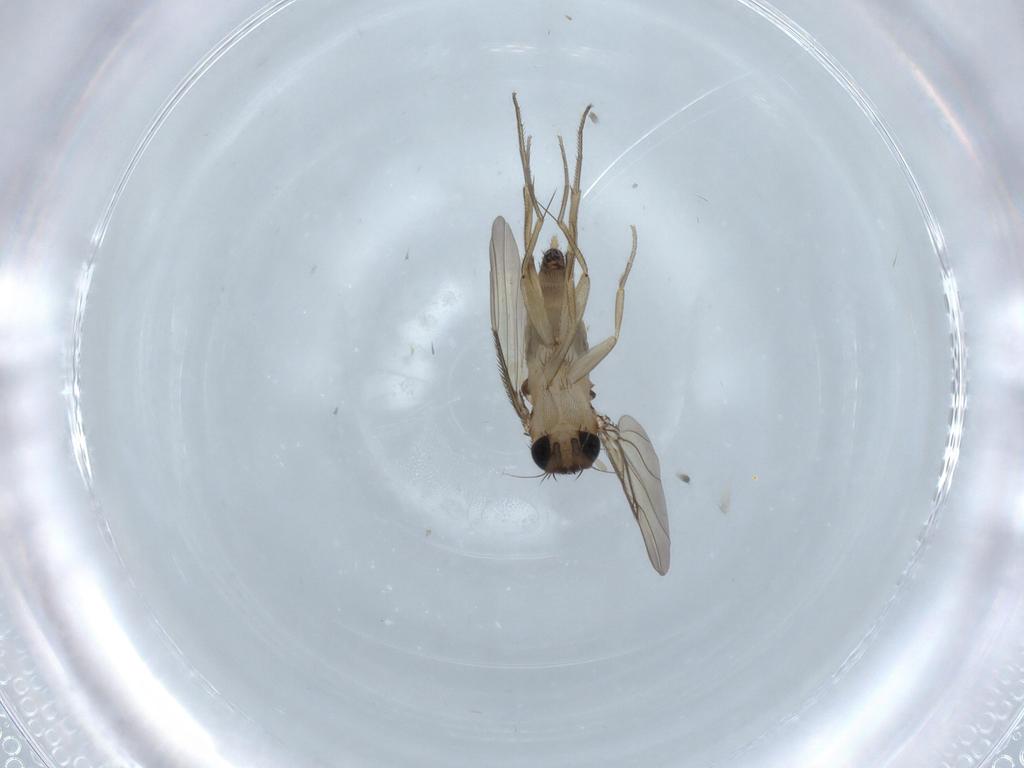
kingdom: Animalia
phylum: Arthropoda
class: Insecta
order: Diptera
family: Phoridae
